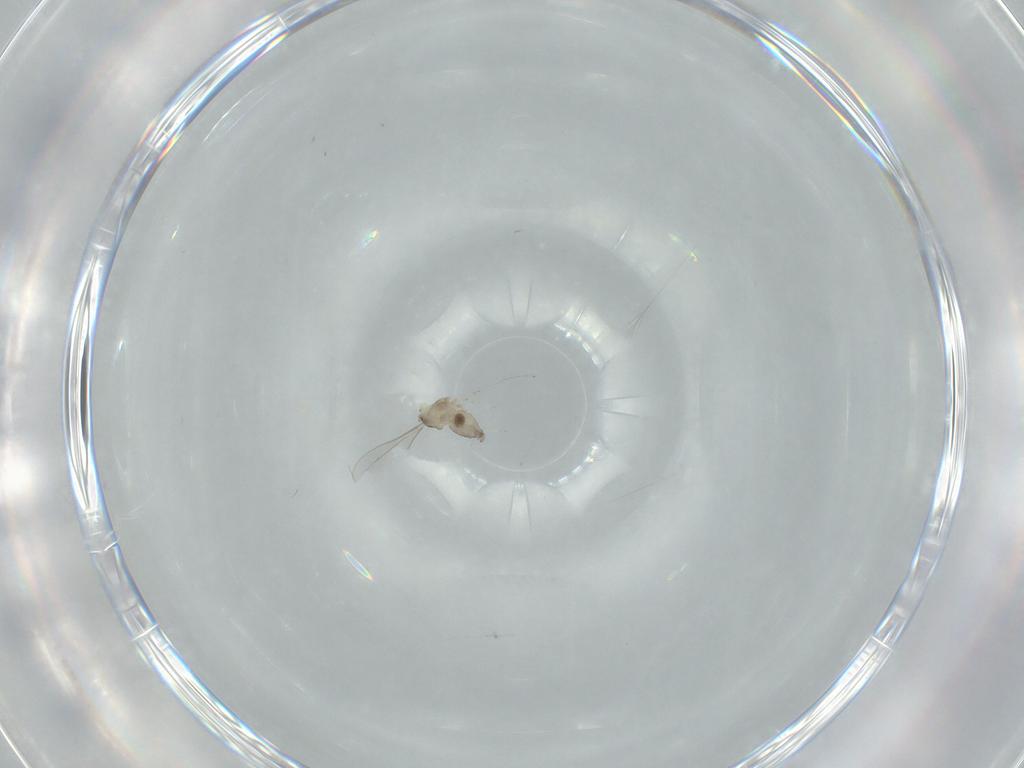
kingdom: Animalia
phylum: Arthropoda
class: Insecta
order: Diptera
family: Cecidomyiidae
